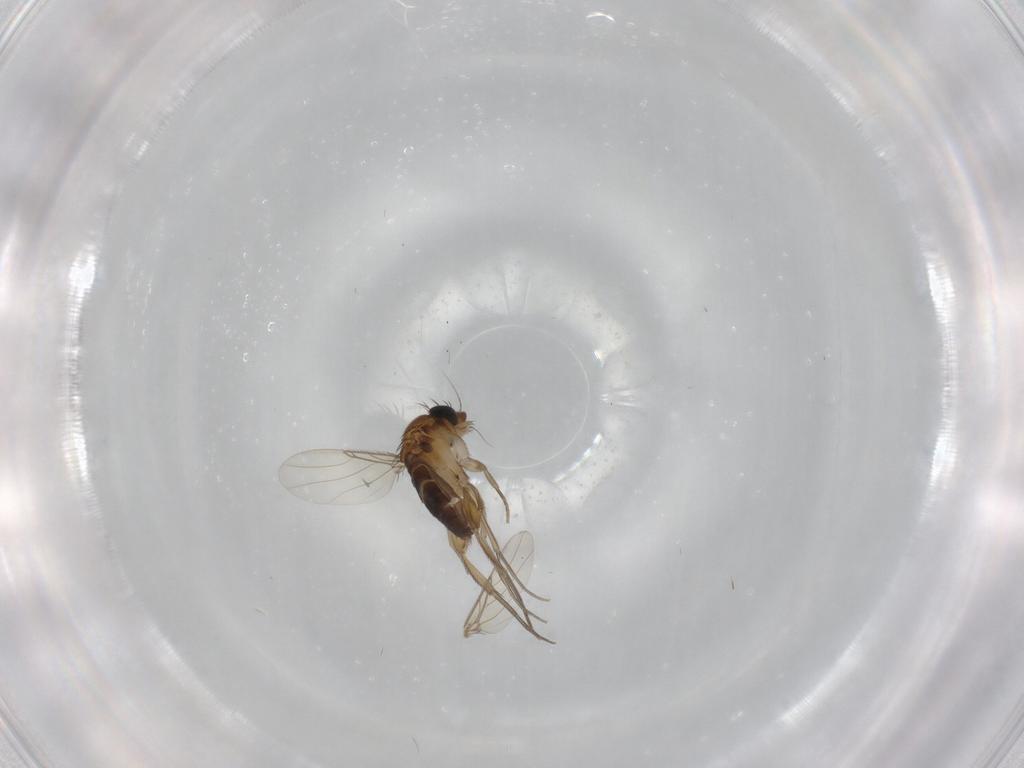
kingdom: Animalia
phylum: Arthropoda
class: Insecta
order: Diptera
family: Phoridae
